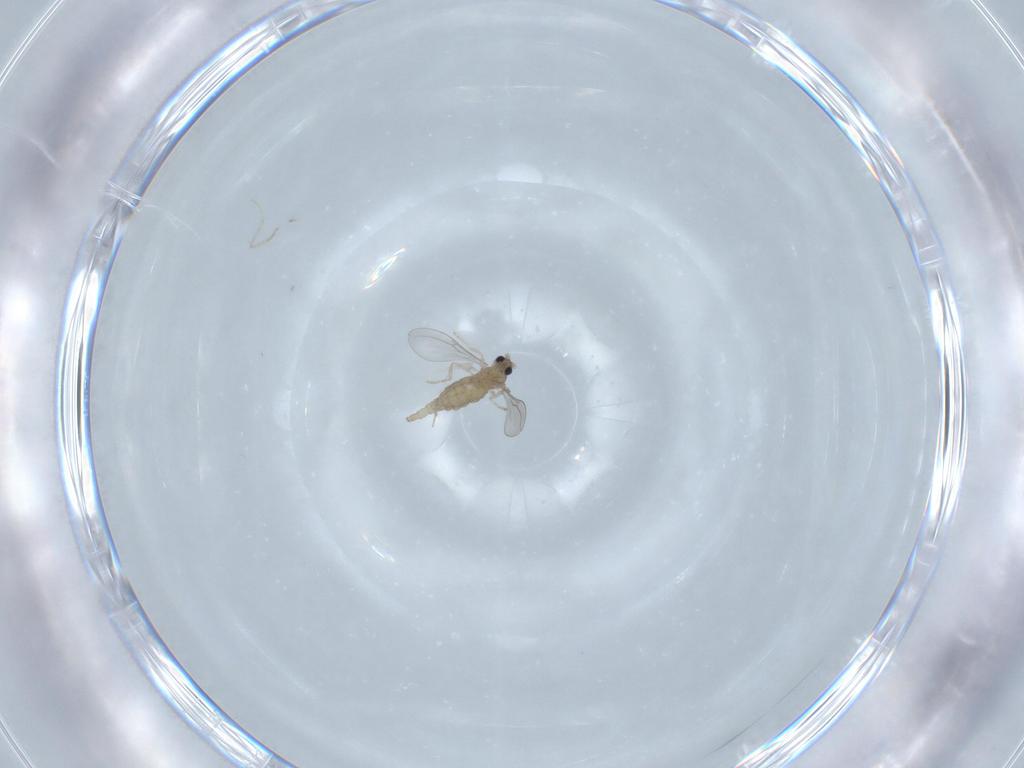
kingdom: Animalia
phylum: Arthropoda
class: Insecta
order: Diptera
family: Cecidomyiidae
